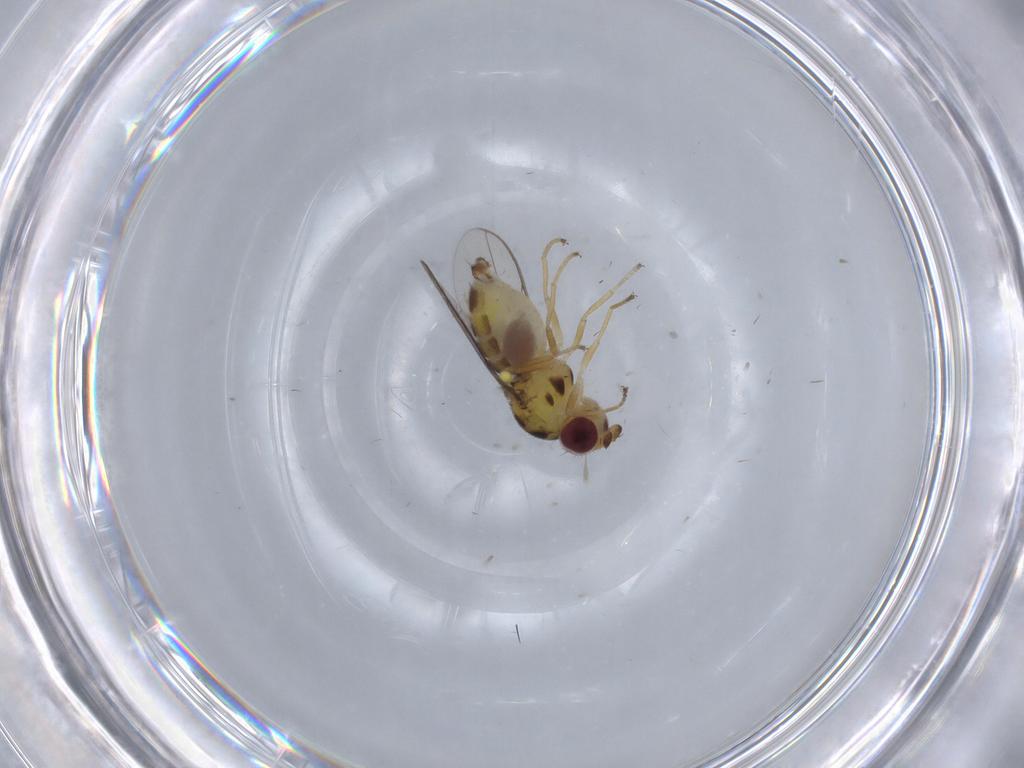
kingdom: Animalia
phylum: Arthropoda
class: Insecta
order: Diptera
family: Chloropidae
